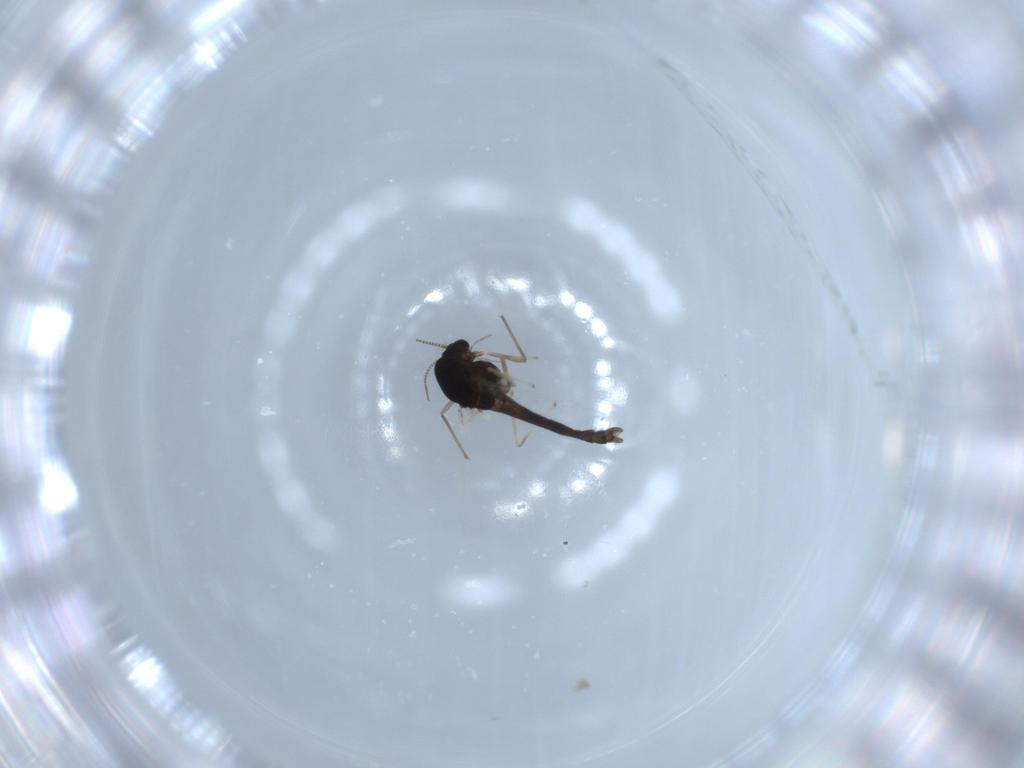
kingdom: Animalia
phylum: Arthropoda
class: Insecta
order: Diptera
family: Chironomidae
